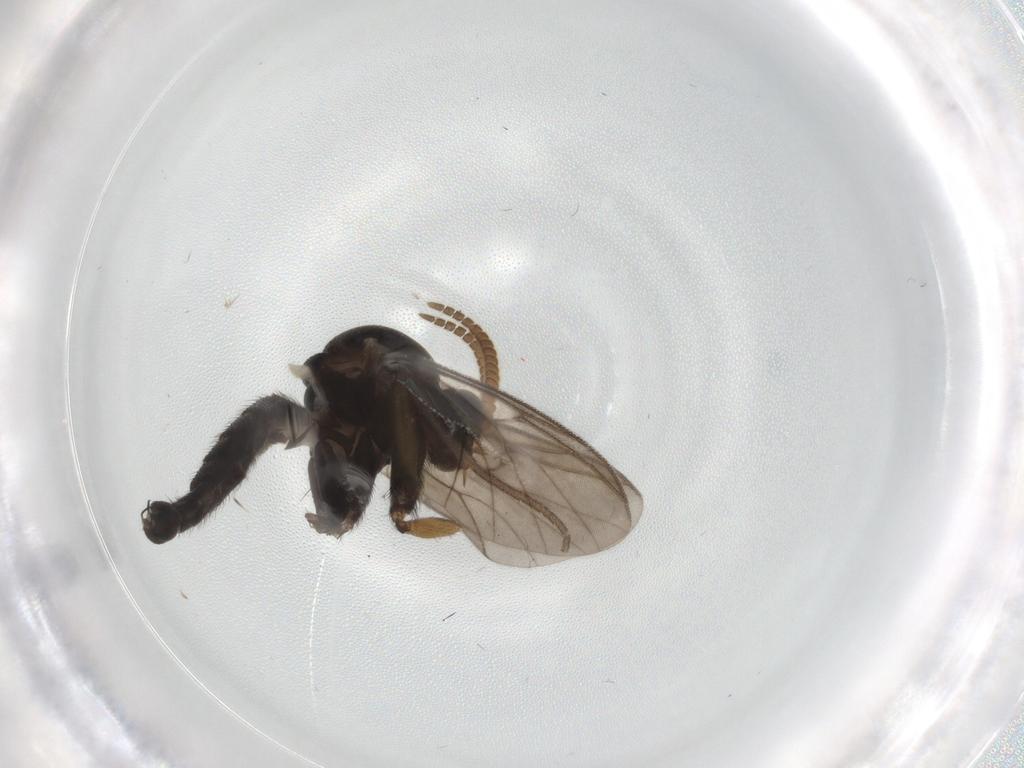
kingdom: Animalia
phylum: Arthropoda
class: Insecta
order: Diptera
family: Chironomidae
